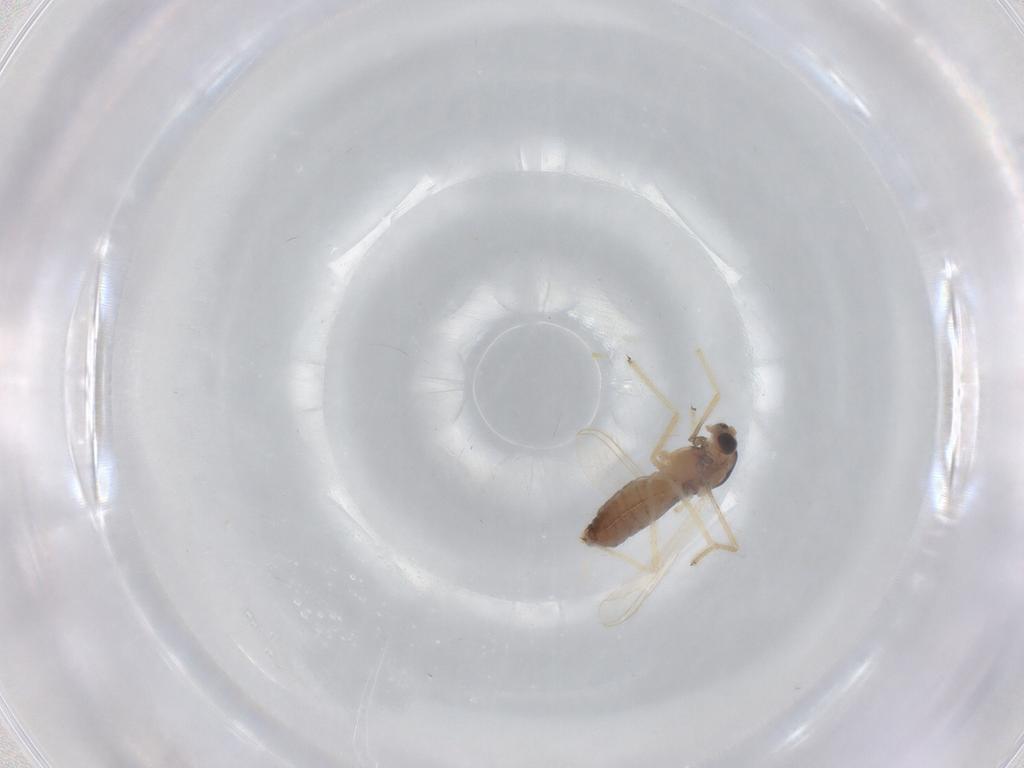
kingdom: Animalia
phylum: Arthropoda
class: Insecta
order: Diptera
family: Chironomidae
